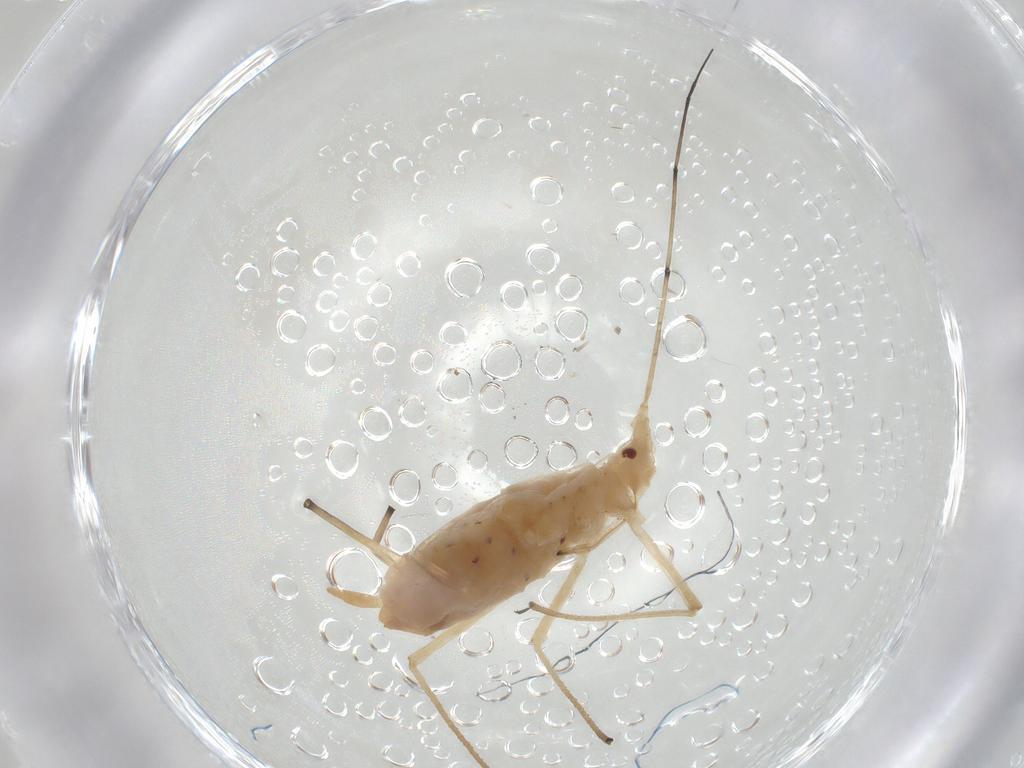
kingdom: Animalia
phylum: Arthropoda
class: Insecta
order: Hemiptera
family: Aphididae
